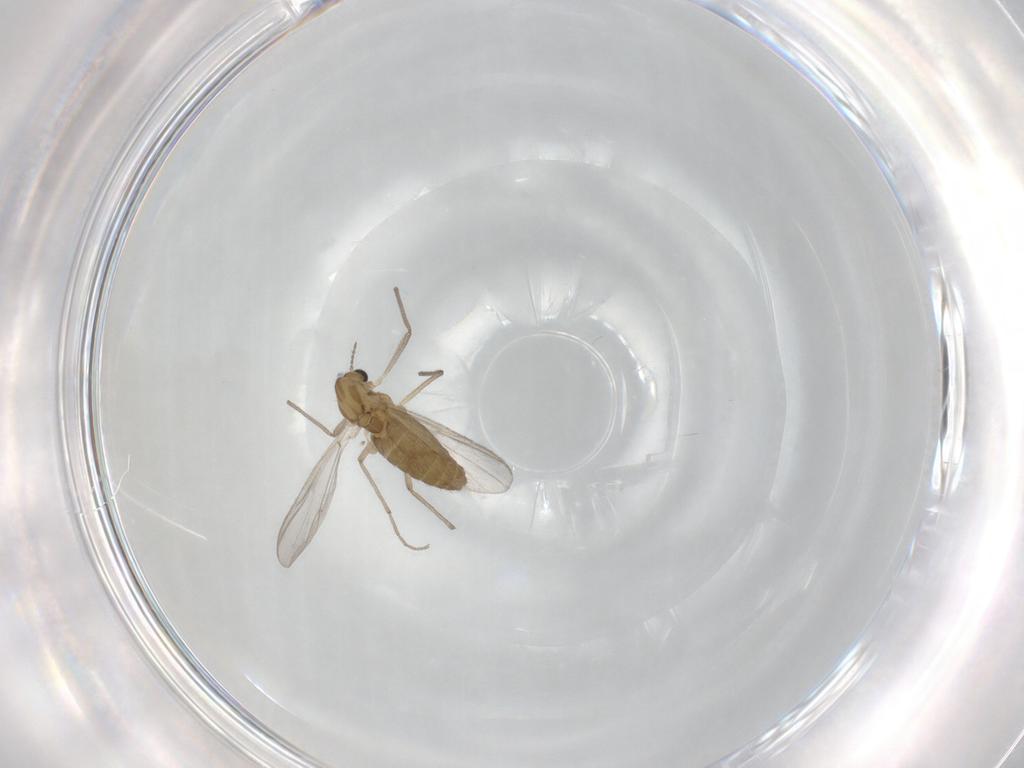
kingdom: Animalia
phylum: Arthropoda
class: Insecta
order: Diptera
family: Chironomidae
